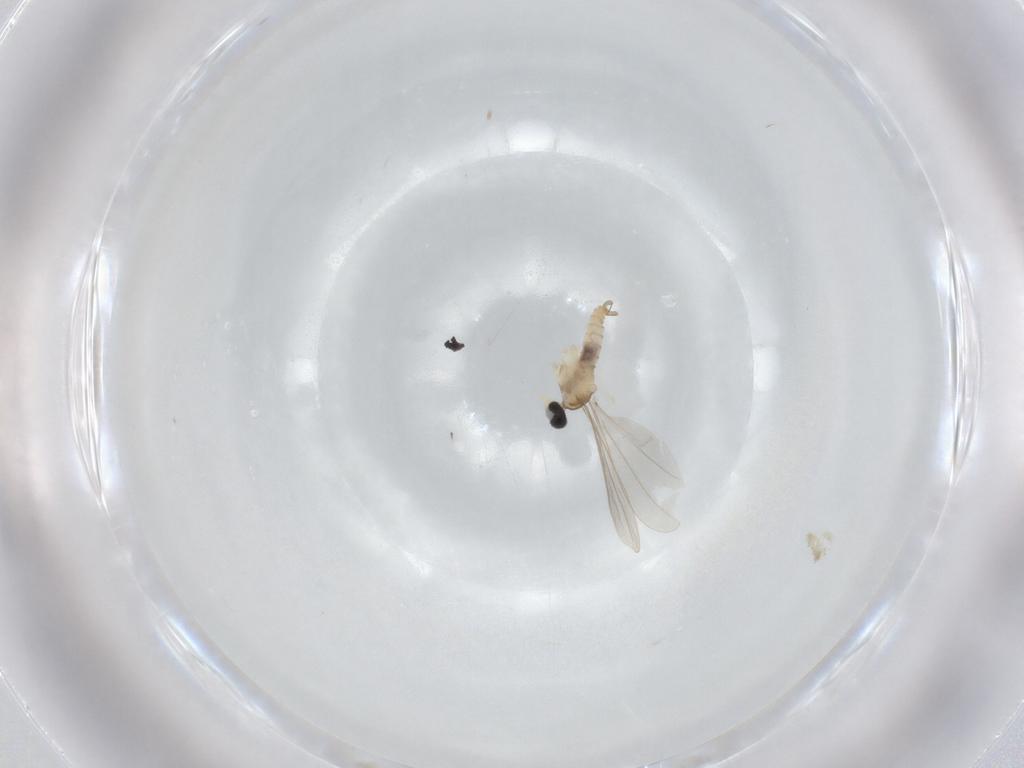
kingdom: Animalia
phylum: Arthropoda
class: Insecta
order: Diptera
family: Cecidomyiidae
